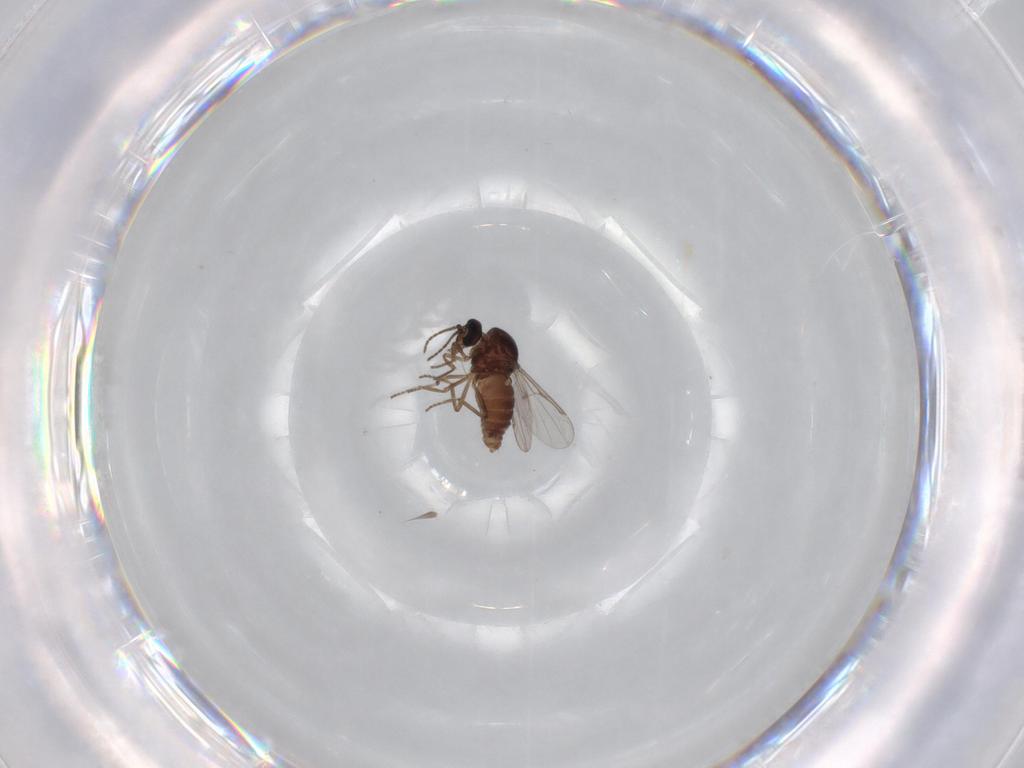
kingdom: Animalia
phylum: Arthropoda
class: Insecta
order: Diptera
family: Ceratopogonidae
